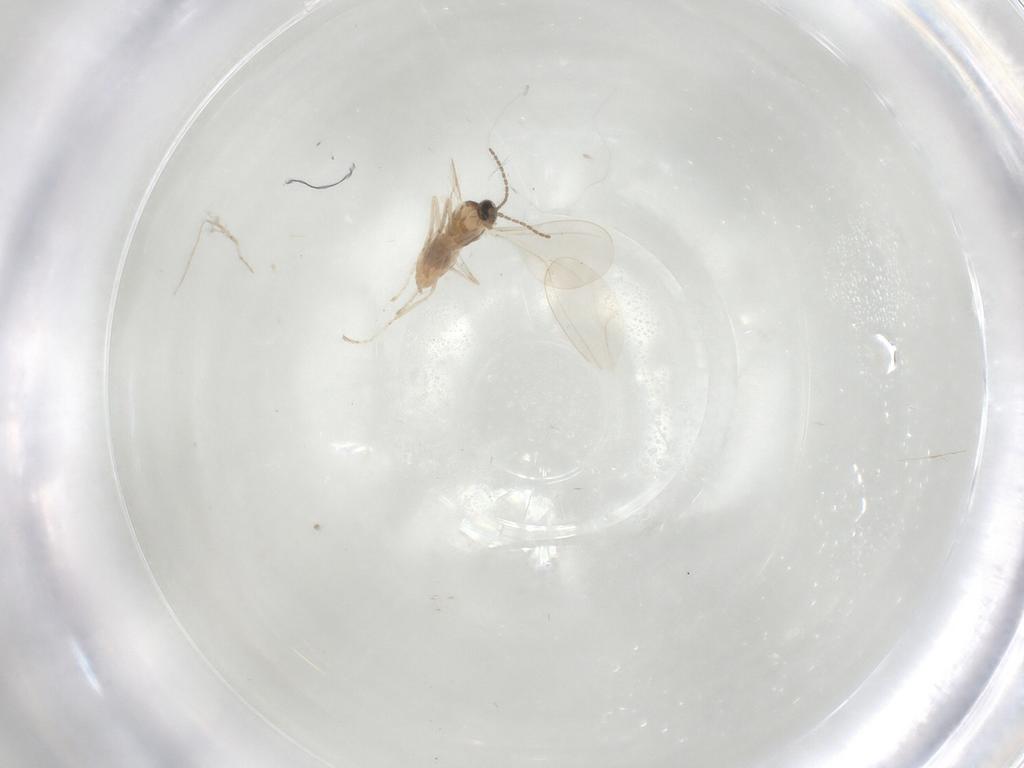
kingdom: Animalia
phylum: Arthropoda
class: Insecta
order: Diptera
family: Cecidomyiidae
